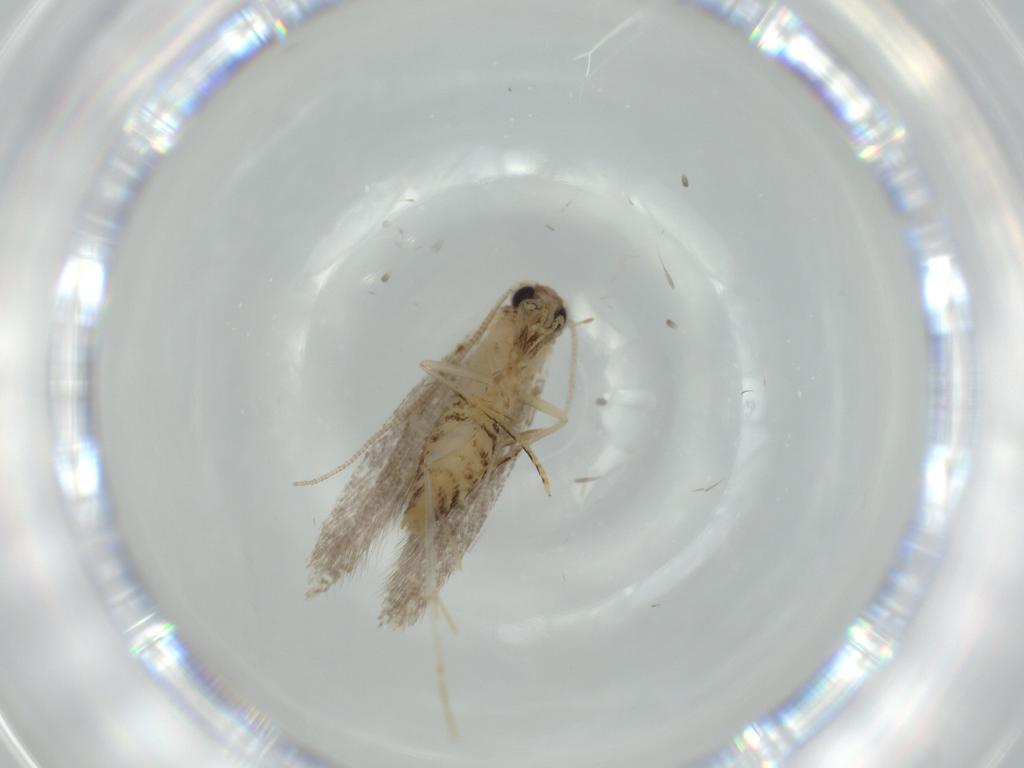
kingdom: Animalia
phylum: Arthropoda
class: Insecta
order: Lepidoptera
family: Tineidae
